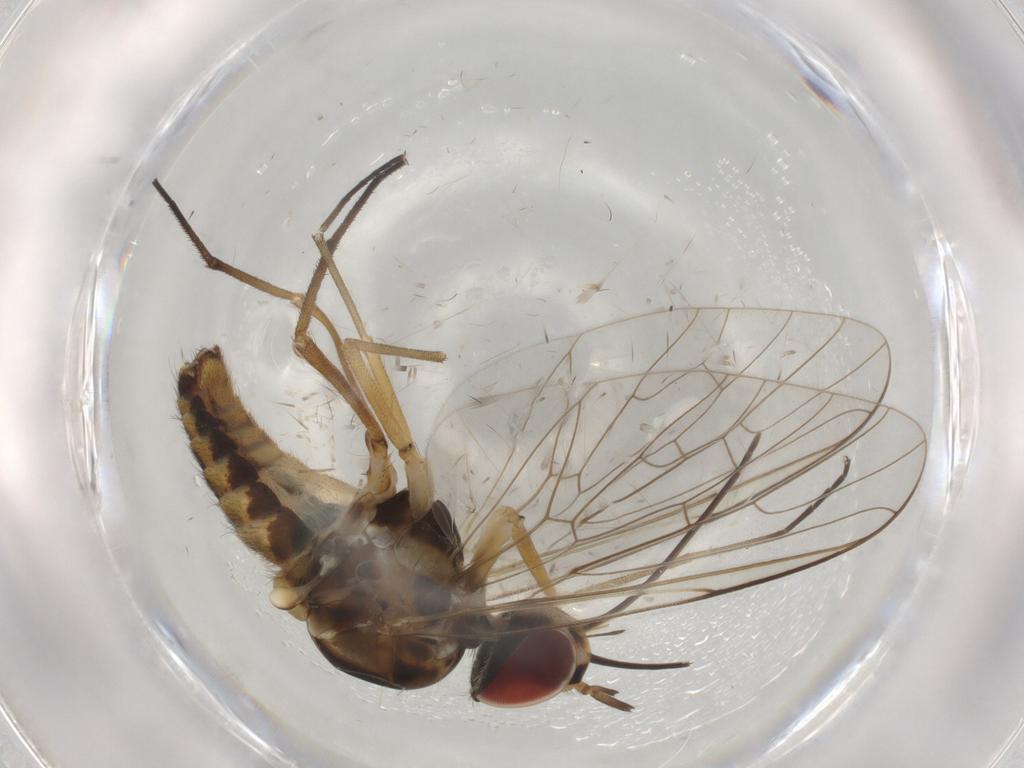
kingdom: Animalia
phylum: Arthropoda
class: Insecta
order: Diptera
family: Bombyliidae
